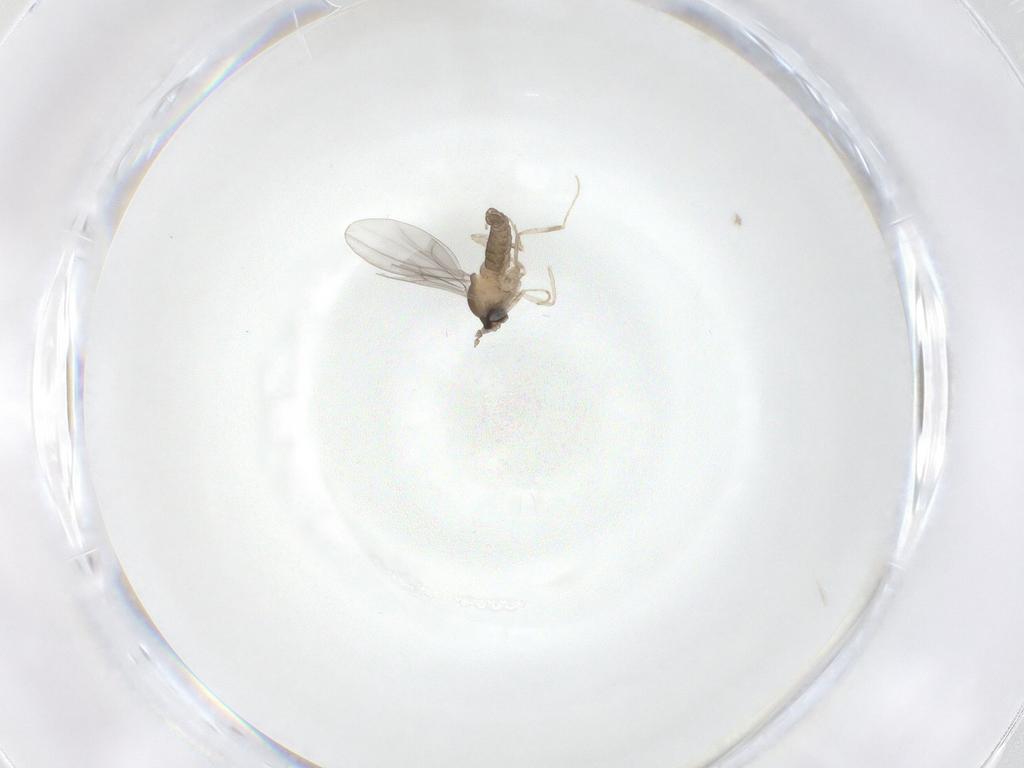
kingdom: Animalia
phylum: Arthropoda
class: Insecta
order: Diptera
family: Cecidomyiidae
